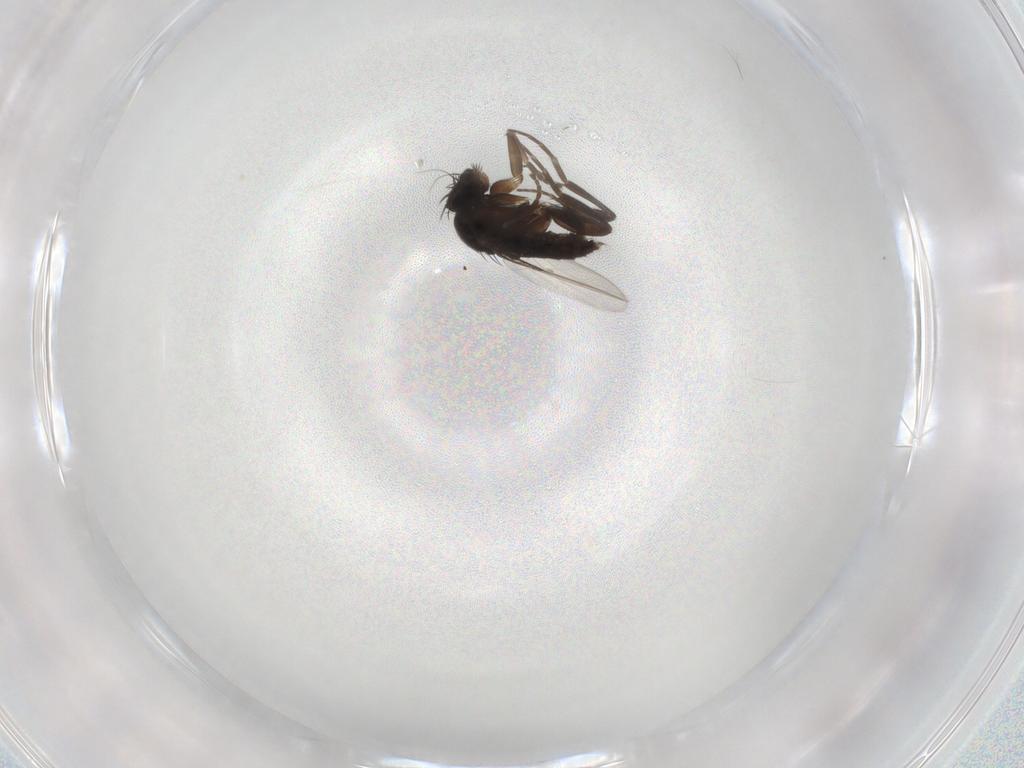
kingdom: Animalia
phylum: Arthropoda
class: Insecta
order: Diptera
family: Phoridae
